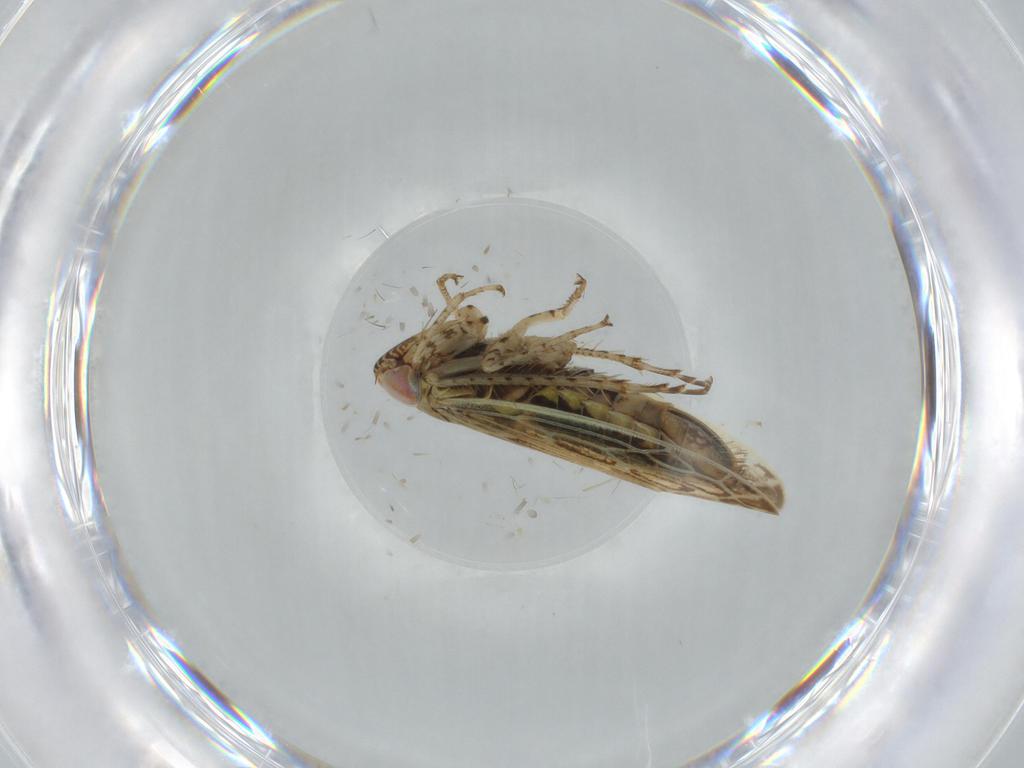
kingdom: Animalia
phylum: Arthropoda
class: Insecta
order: Hemiptera
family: Cicadellidae
